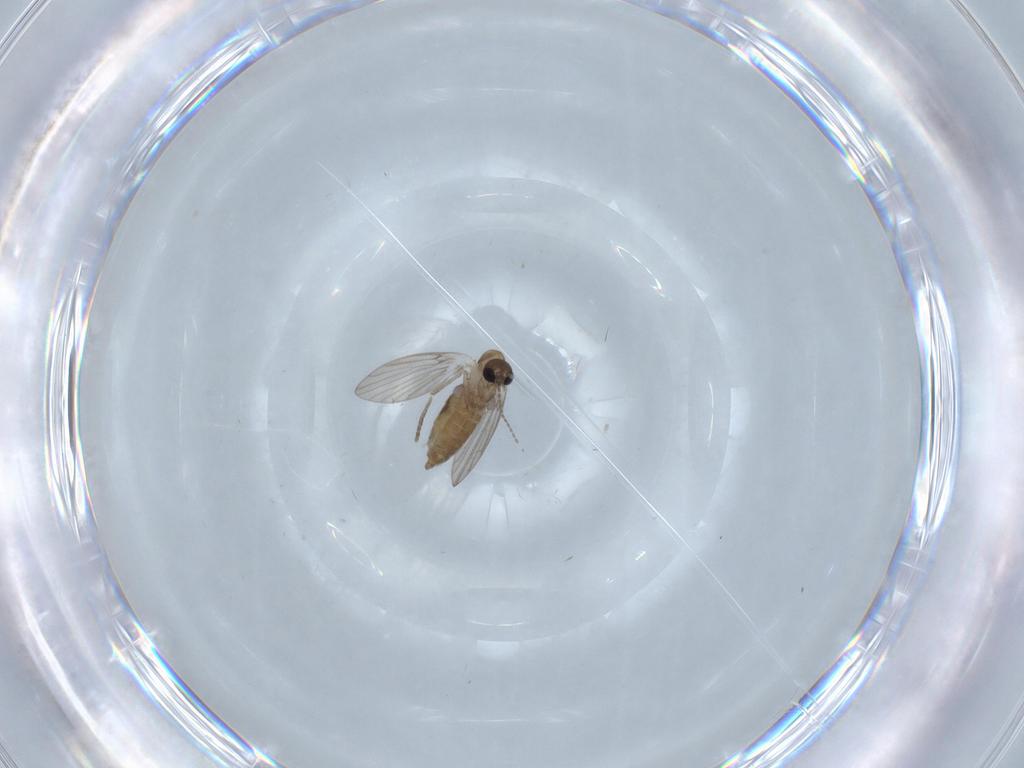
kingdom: Animalia
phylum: Arthropoda
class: Insecta
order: Diptera
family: Psychodidae
